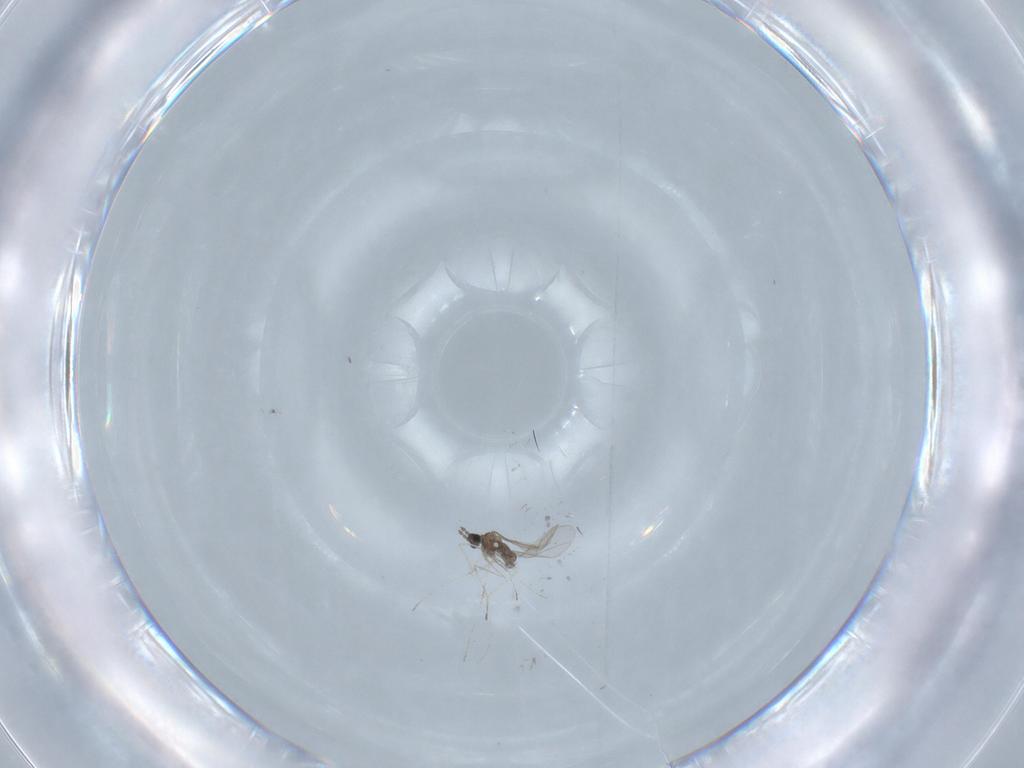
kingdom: Animalia
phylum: Arthropoda
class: Insecta
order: Diptera
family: Cecidomyiidae
